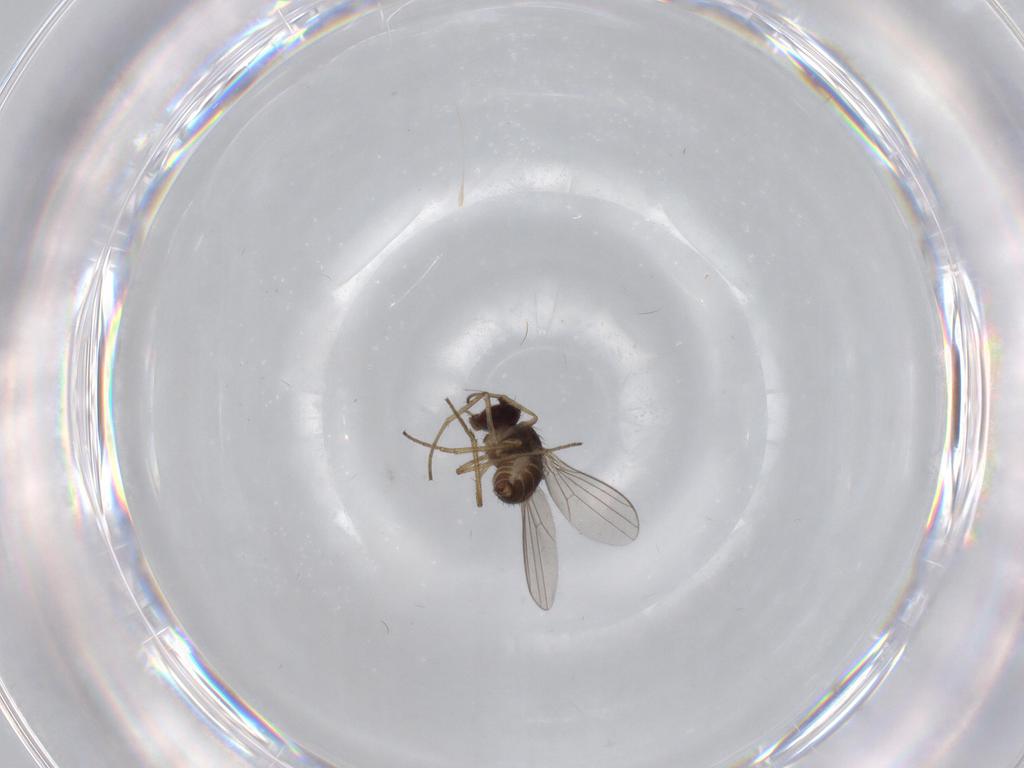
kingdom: Animalia
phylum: Arthropoda
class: Insecta
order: Diptera
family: Dolichopodidae
